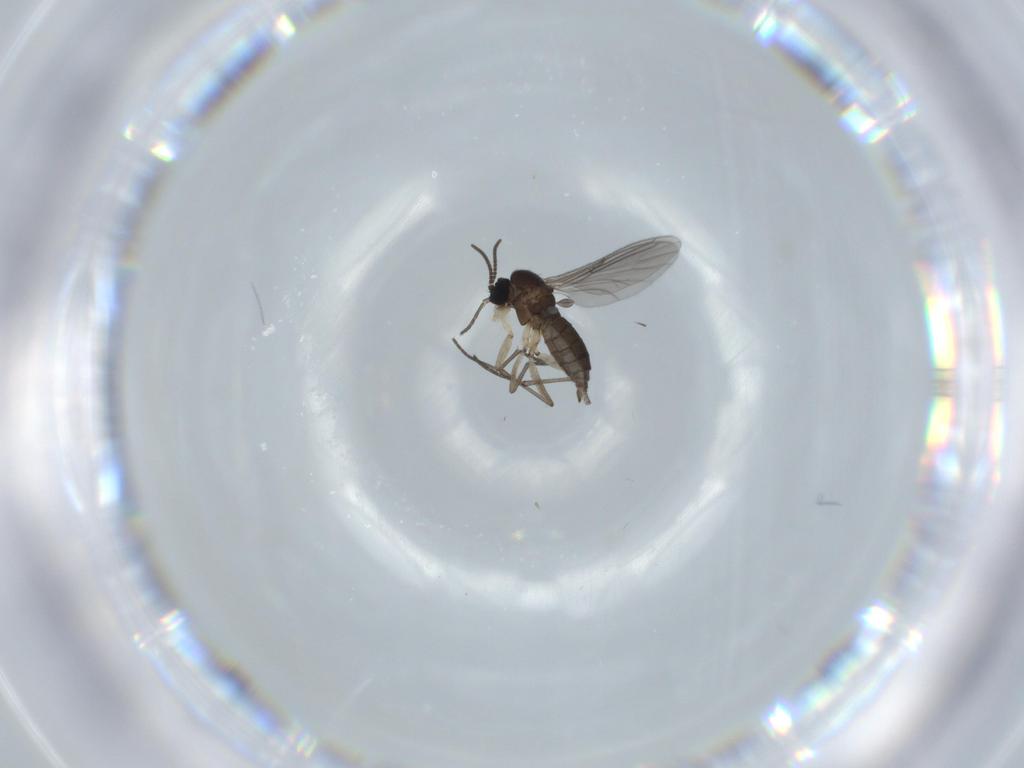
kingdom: Animalia
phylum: Arthropoda
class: Insecta
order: Diptera
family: Sciaridae
